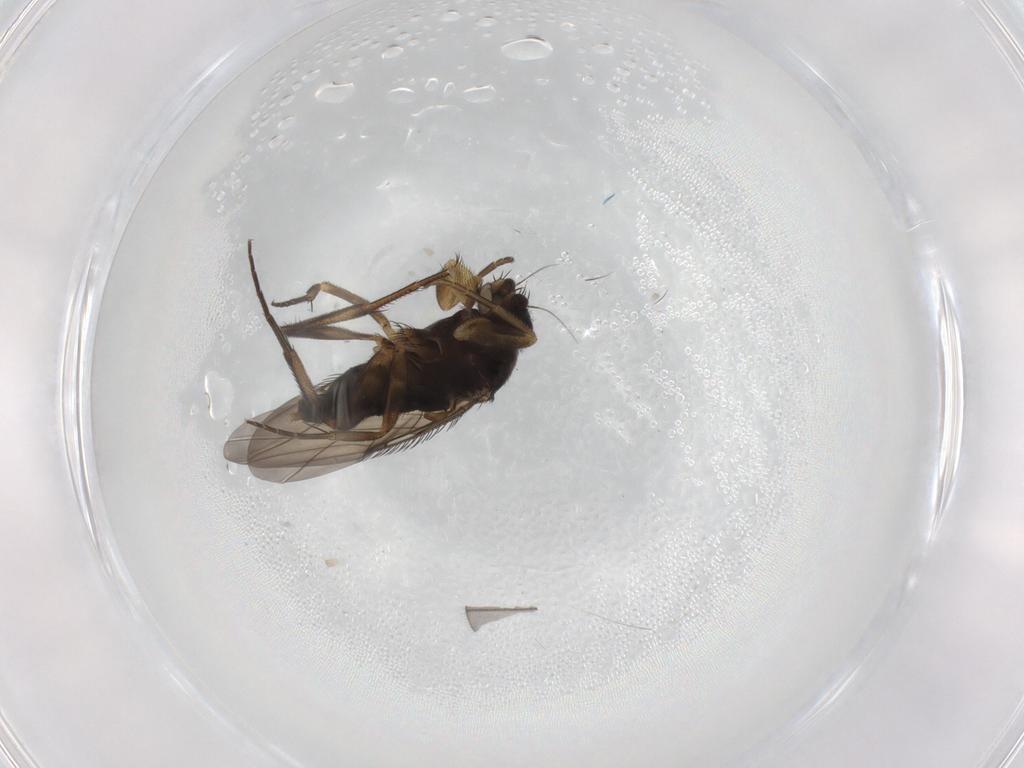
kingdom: Animalia
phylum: Arthropoda
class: Insecta
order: Diptera
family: Phoridae
